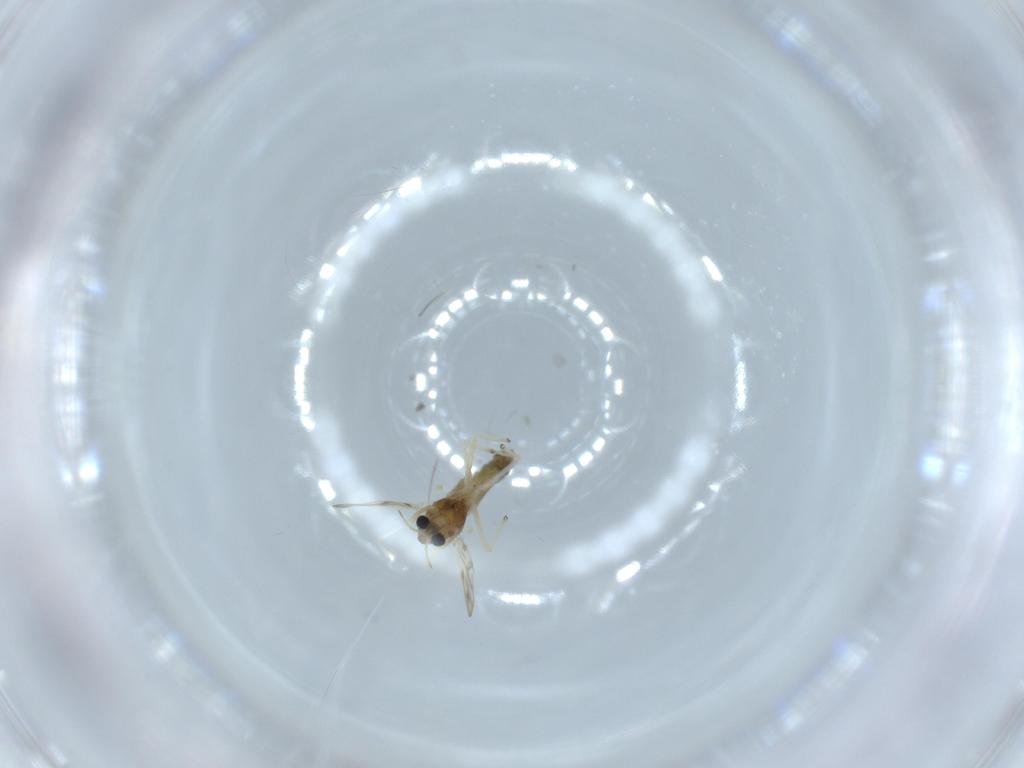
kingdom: Animalia
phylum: Arthropoda
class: Insecta
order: Diptera
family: Chironomidae
